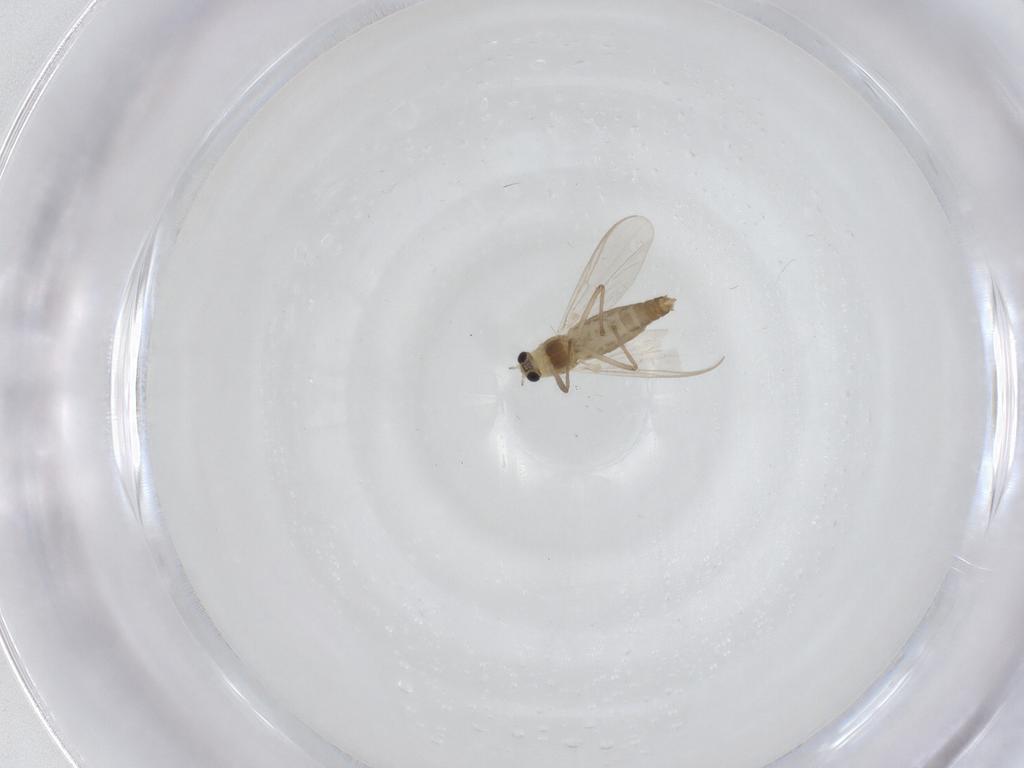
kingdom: Animalia
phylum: Arthropoda
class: Insecta
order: Diptera
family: Chironomidae
